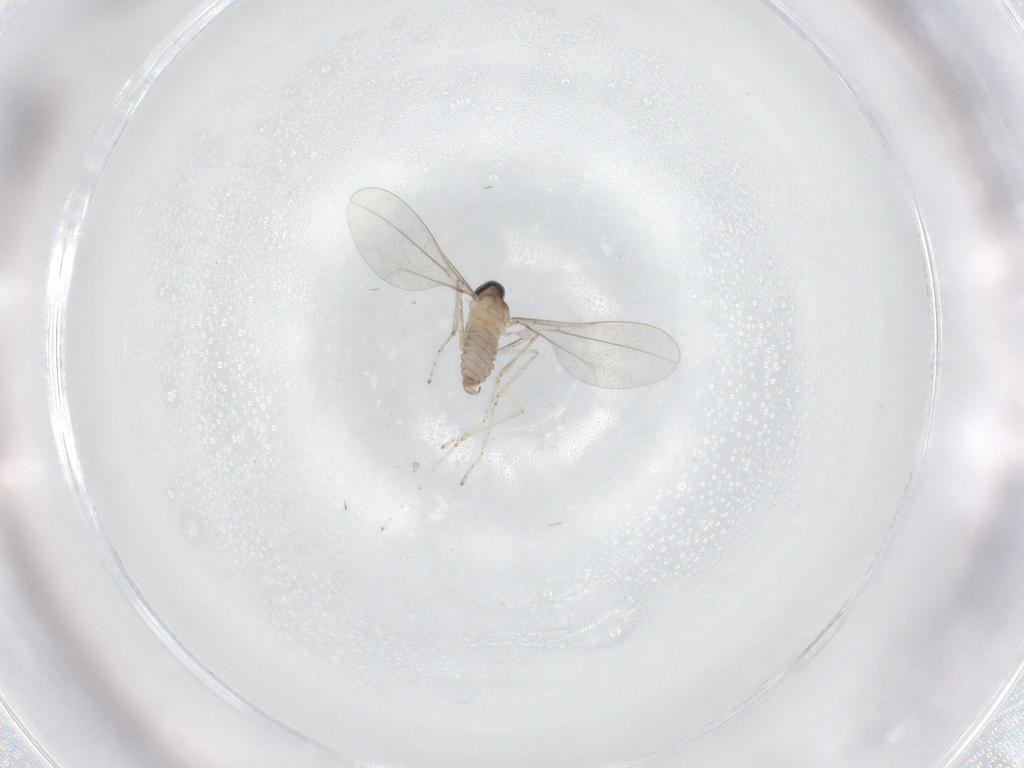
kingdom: Animalia
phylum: Arthropoda
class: Insecta
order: Diptera
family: Cecidomyiidae
